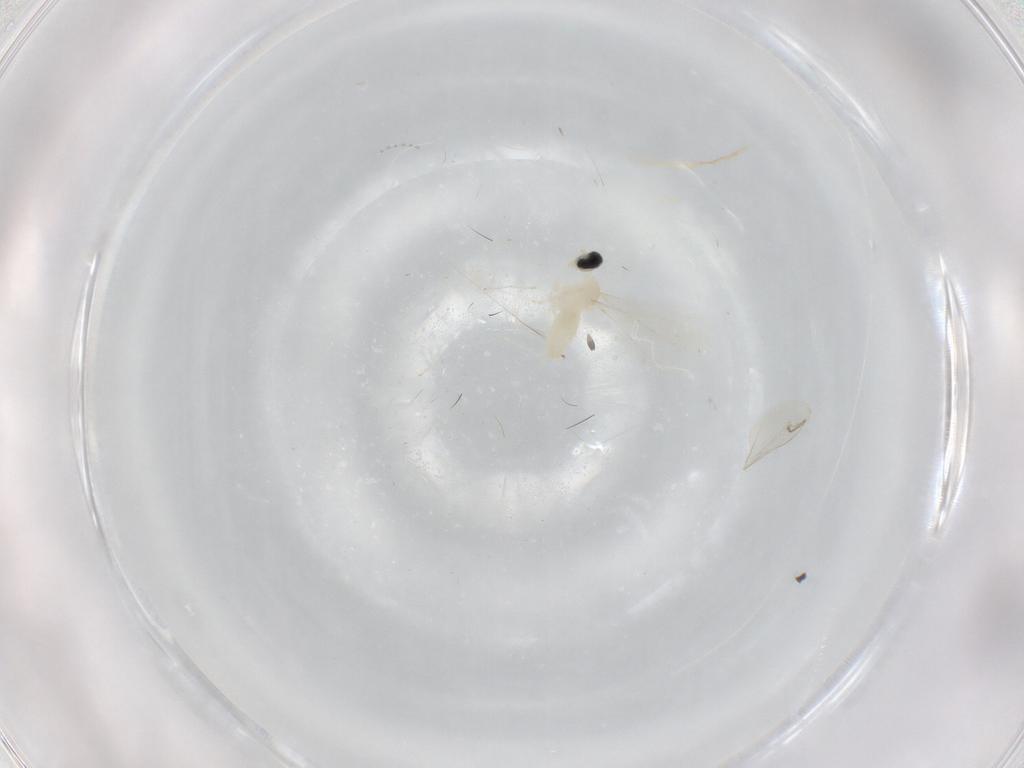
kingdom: Animalia
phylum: Arthropoda
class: Insecta
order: Diptera
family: Cecidomyiidae
